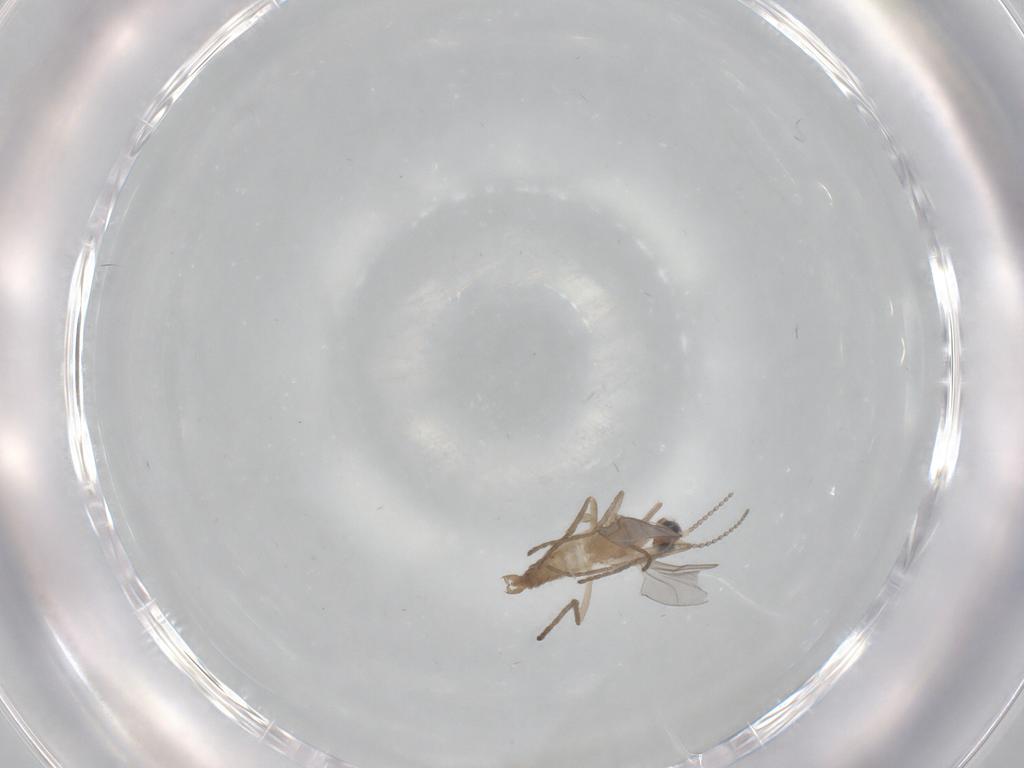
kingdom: Animalia
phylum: Arthropoda
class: Insecta
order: Diptera
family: Cecidomyiidae
